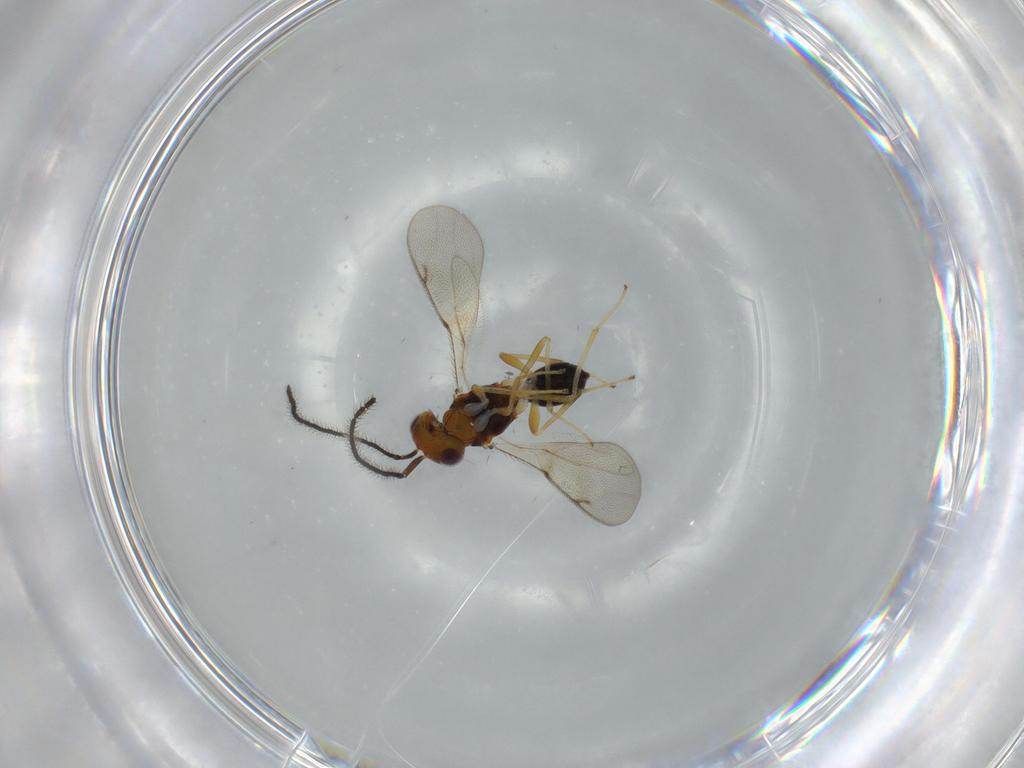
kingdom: Animalia
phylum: Arthropoda
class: Insecta
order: Hymenoptera
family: Diparidae
